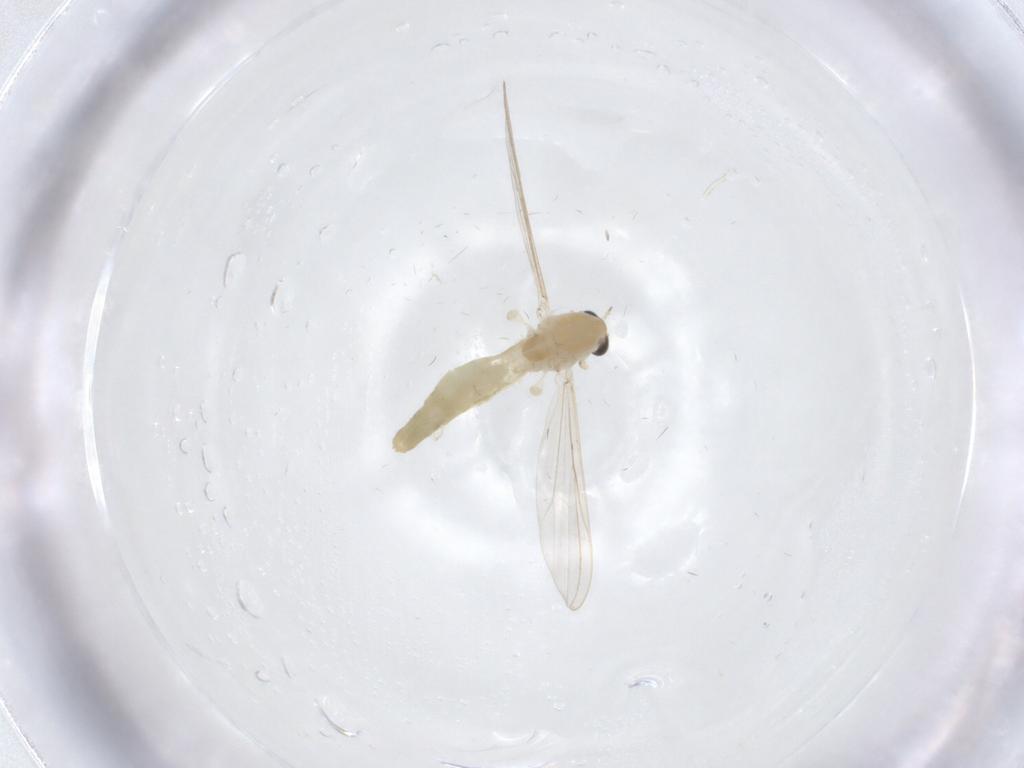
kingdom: Animalia
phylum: Arthropoda
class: Insecta
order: Diptera
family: Chironomidae
